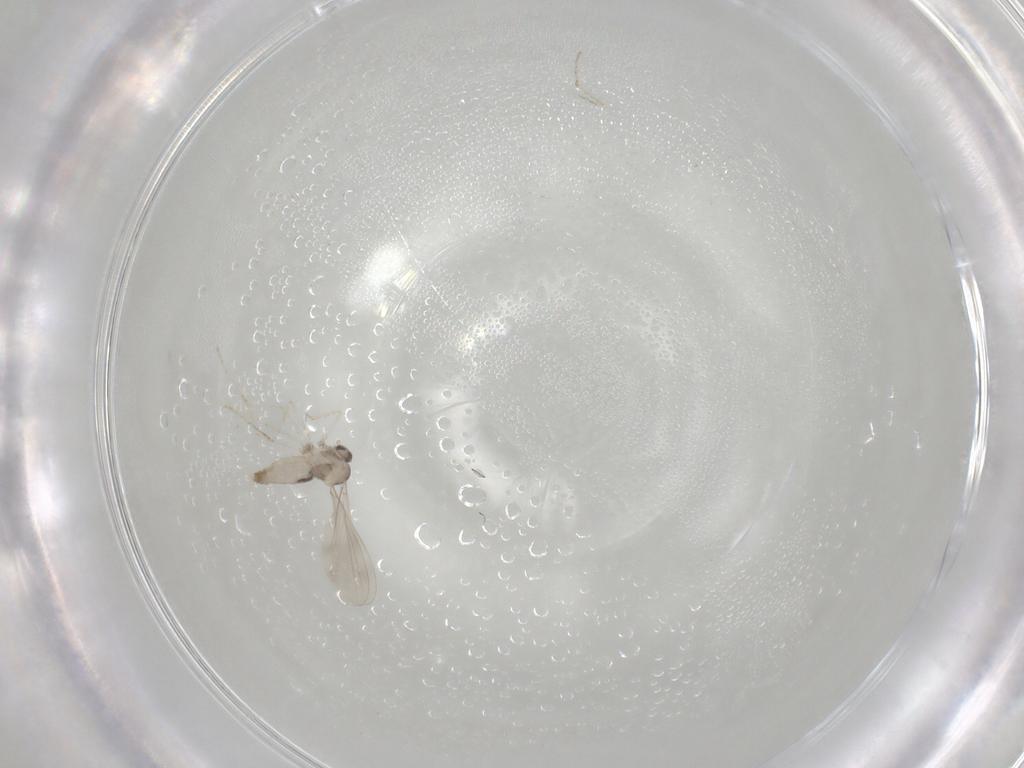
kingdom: Animalia
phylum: Arthropoda
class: Insecta
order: Diptera
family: Cecidomyiidae
